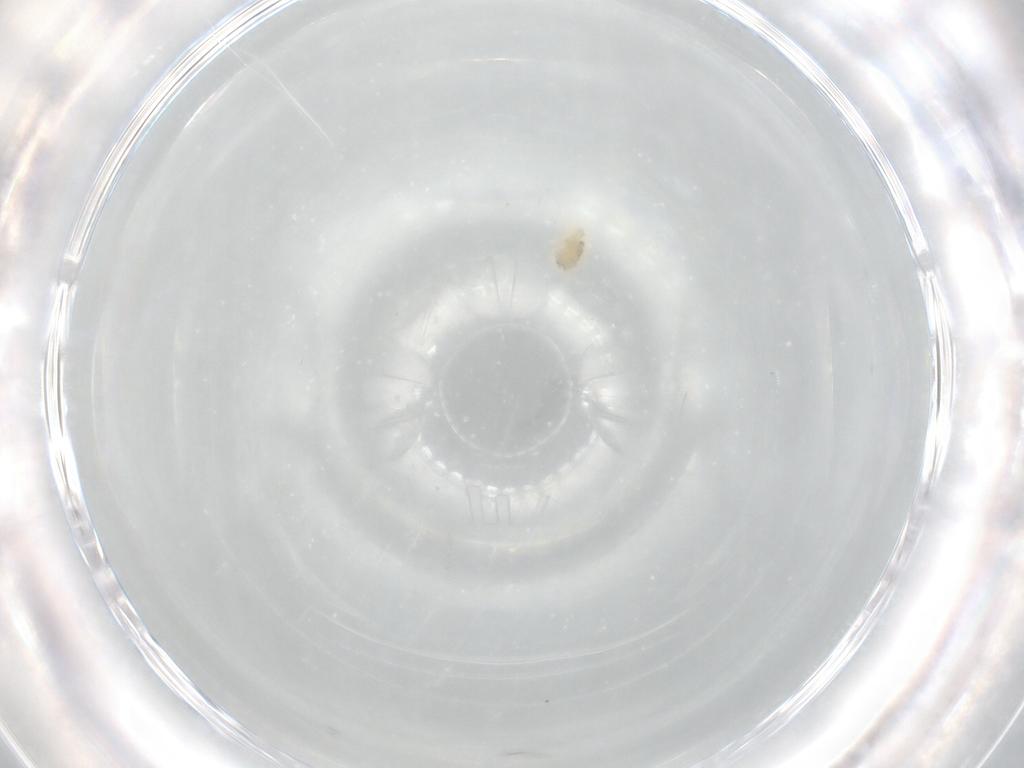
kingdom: Animalia
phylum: Arthropoda
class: Arachnida
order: Trombidiformes
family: Eupodidae
